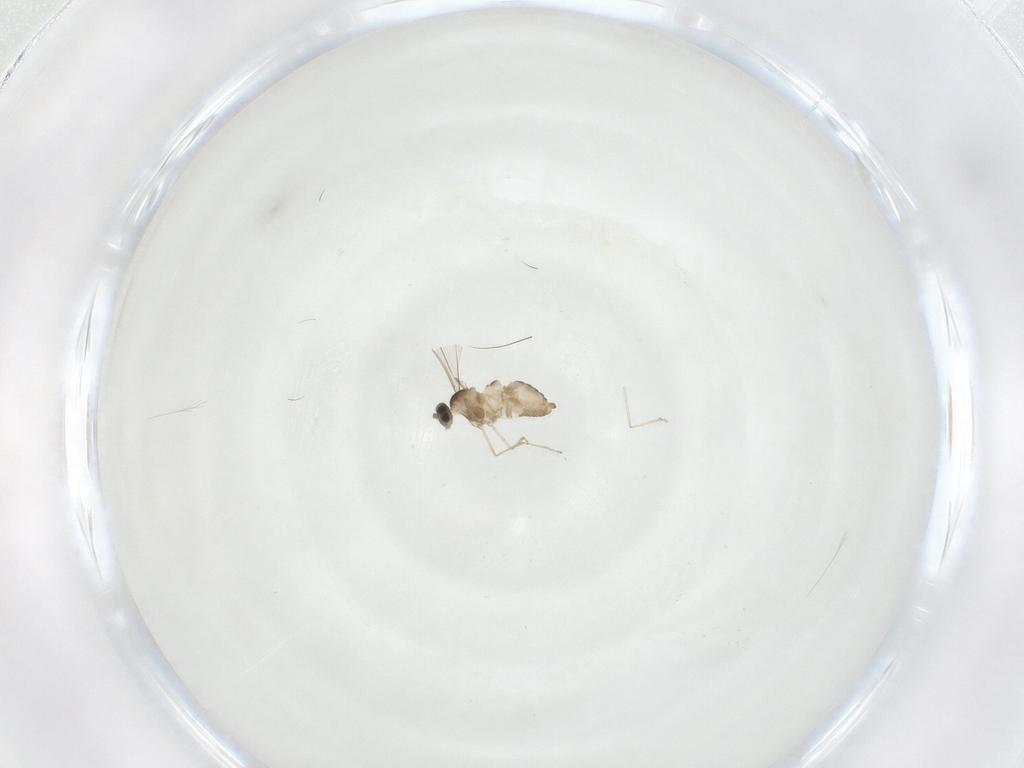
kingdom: Animalia
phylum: Arthropoda
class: Insecta
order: Diptera
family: Cecidomyiidae
